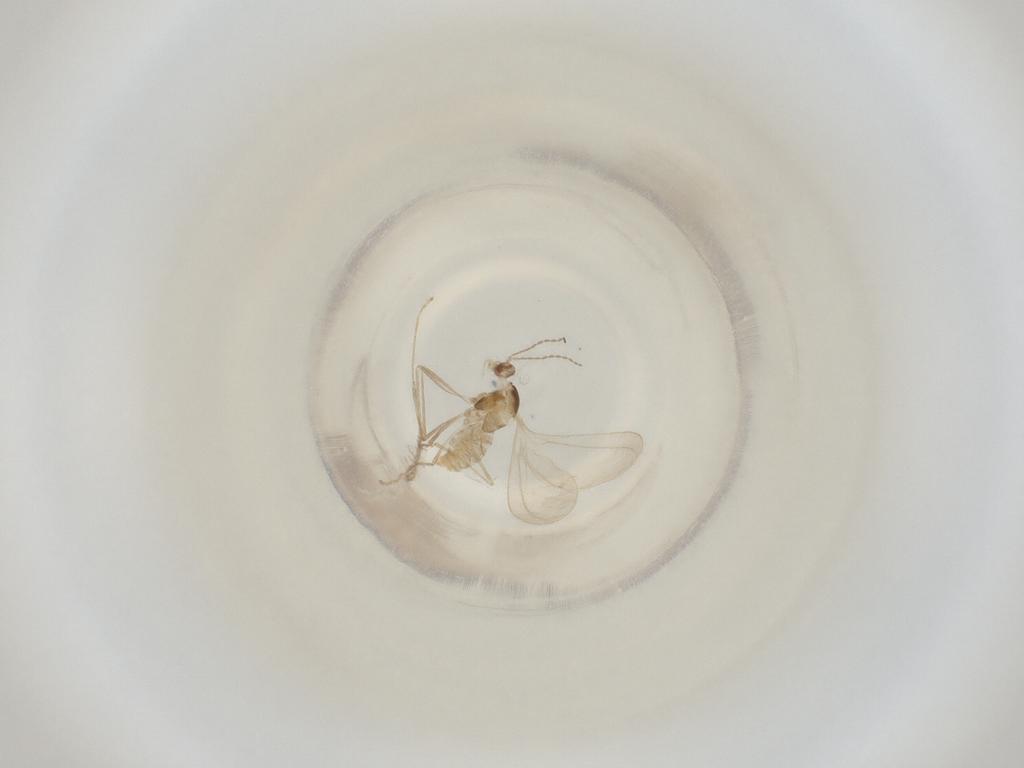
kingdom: Animalia
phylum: Arthropoda
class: Insecta
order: Diptera
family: Cecidomyiidae
